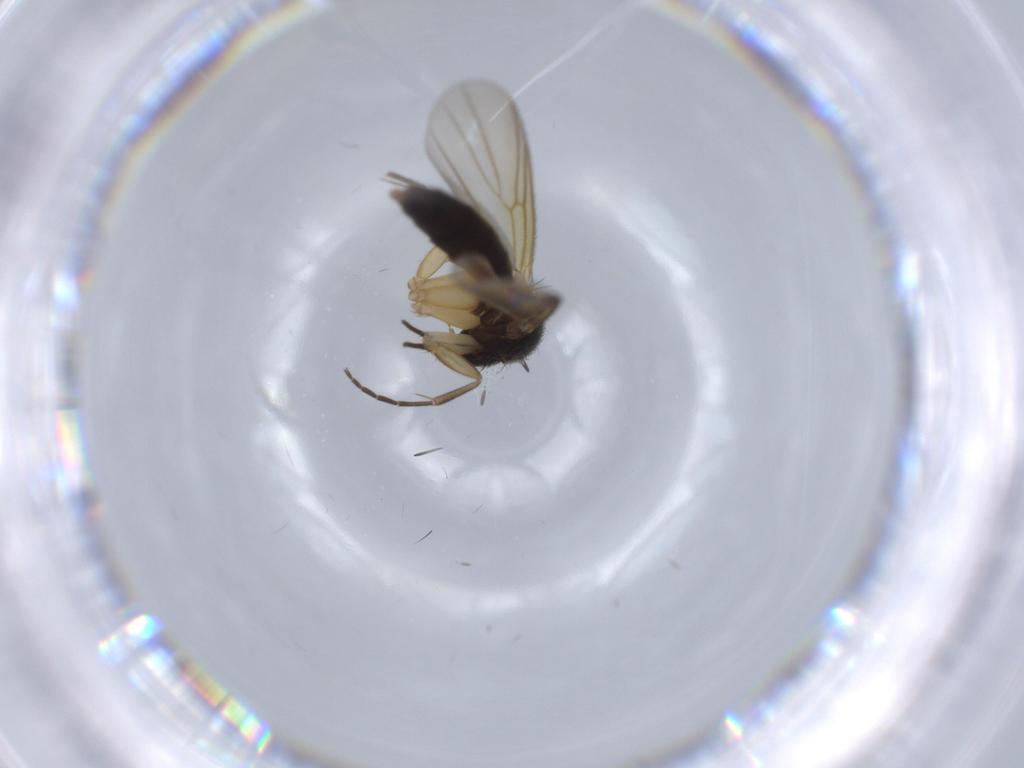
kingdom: Animalia
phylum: Arthropoda
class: Insecta
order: Diptera
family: Mycetophilidae
